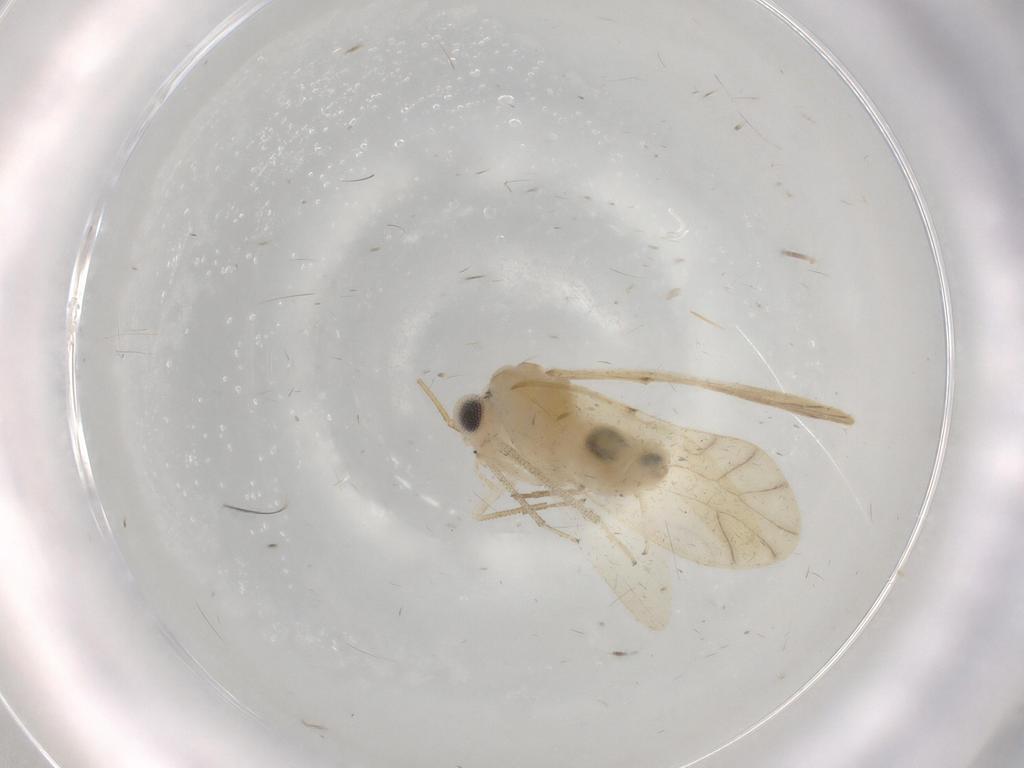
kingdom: Animalia
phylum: Arthropoda
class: Insecta
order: Psocodea
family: Caeciliusidae
